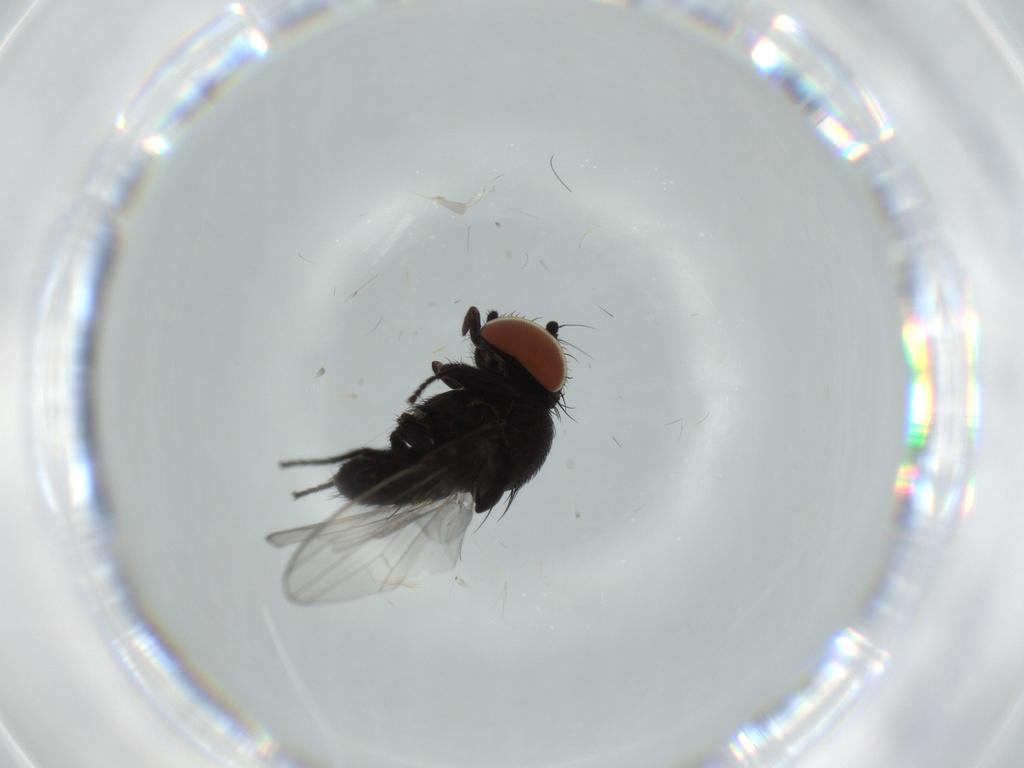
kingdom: Animalia
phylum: Arthropoda
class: Insecta
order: Diptera
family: Milichiidae
